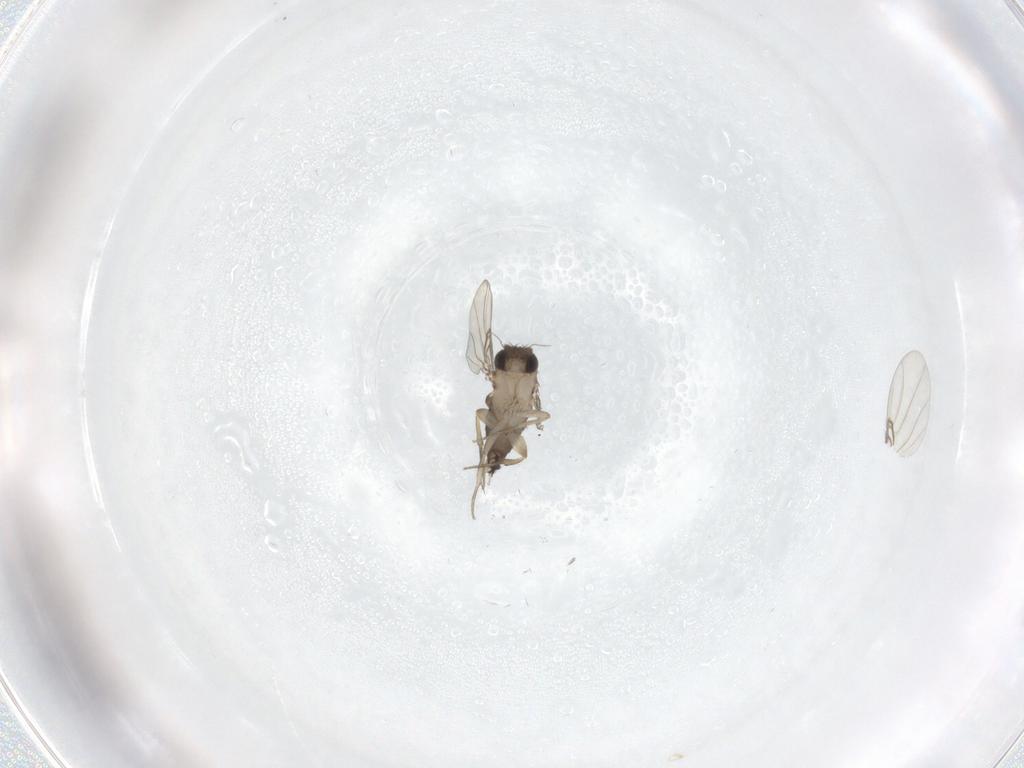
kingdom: Animalia
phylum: Arthropoda
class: Insecta
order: Diptera
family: Phoridae
